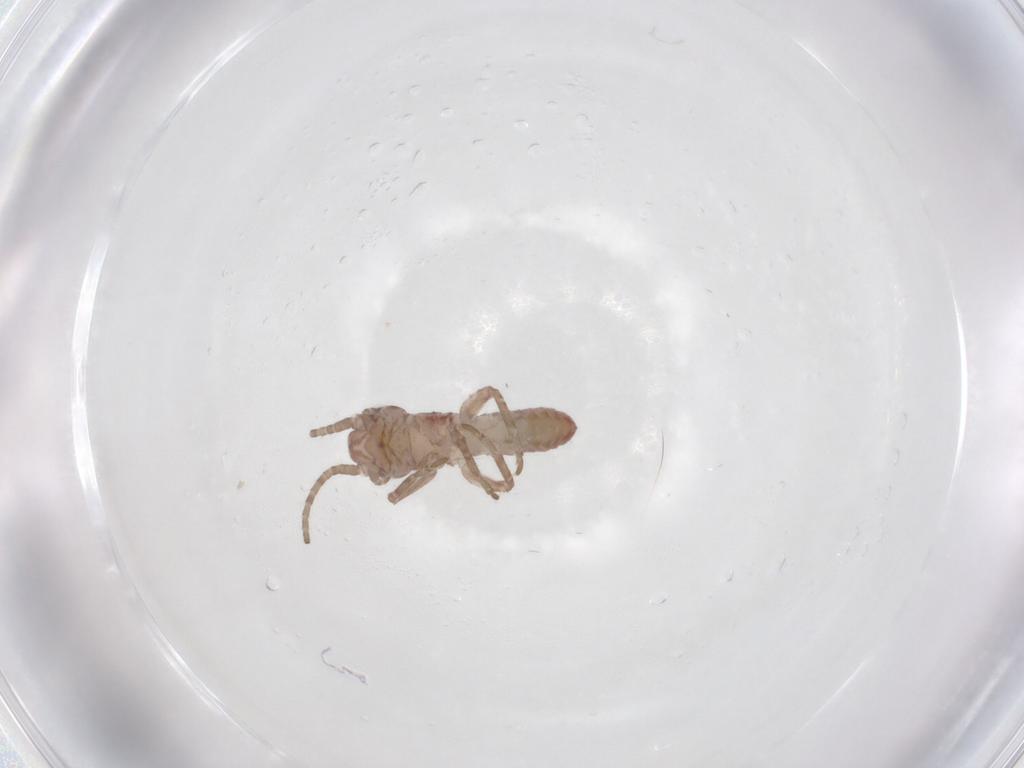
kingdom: Animalia
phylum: Arthropoda
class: Insecta
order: Orthoptera
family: Mogoplistidae
